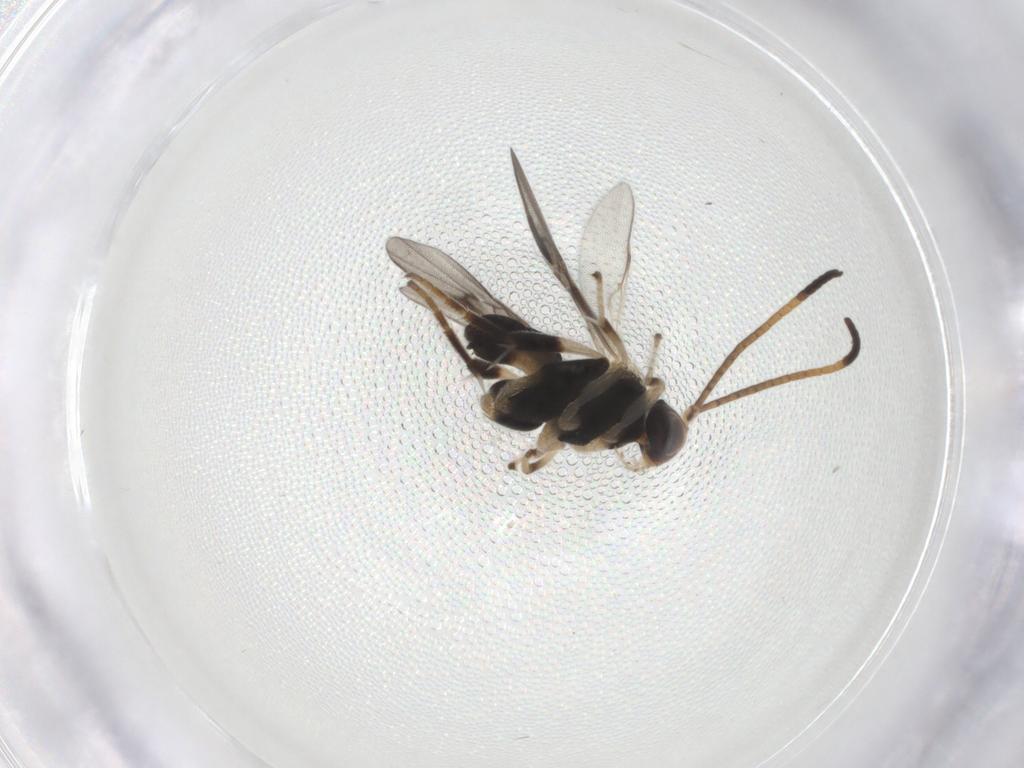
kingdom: Animalia
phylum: Arthropoda
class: Insecta
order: Hymenoptera
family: Braconidae
